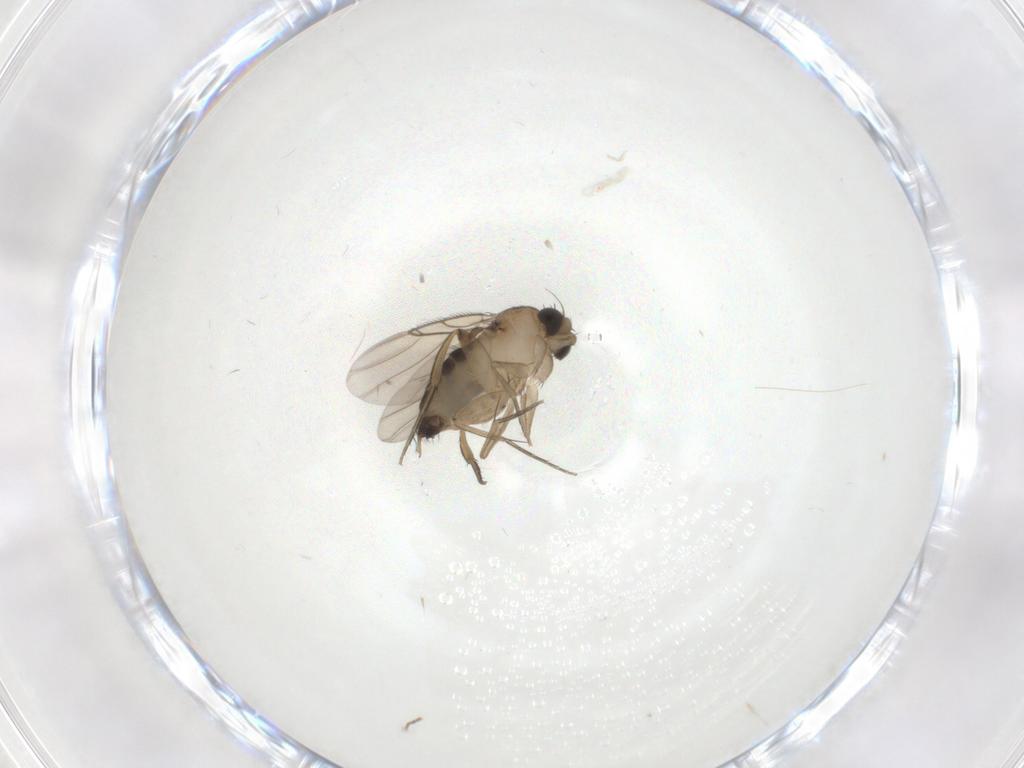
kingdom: Animalia
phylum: Arthropoda
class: Insecta
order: Diptera
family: Phoridae
